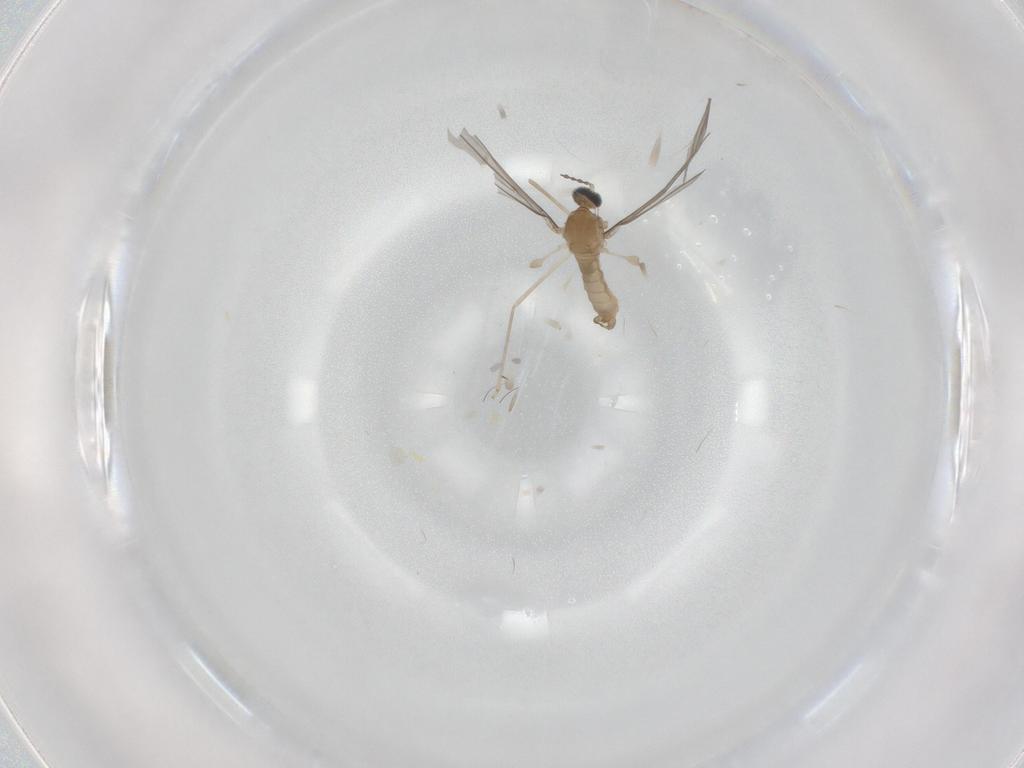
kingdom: Animalia
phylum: Arthropoda
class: Insecta
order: Diptera
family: Cecidomyiidae
